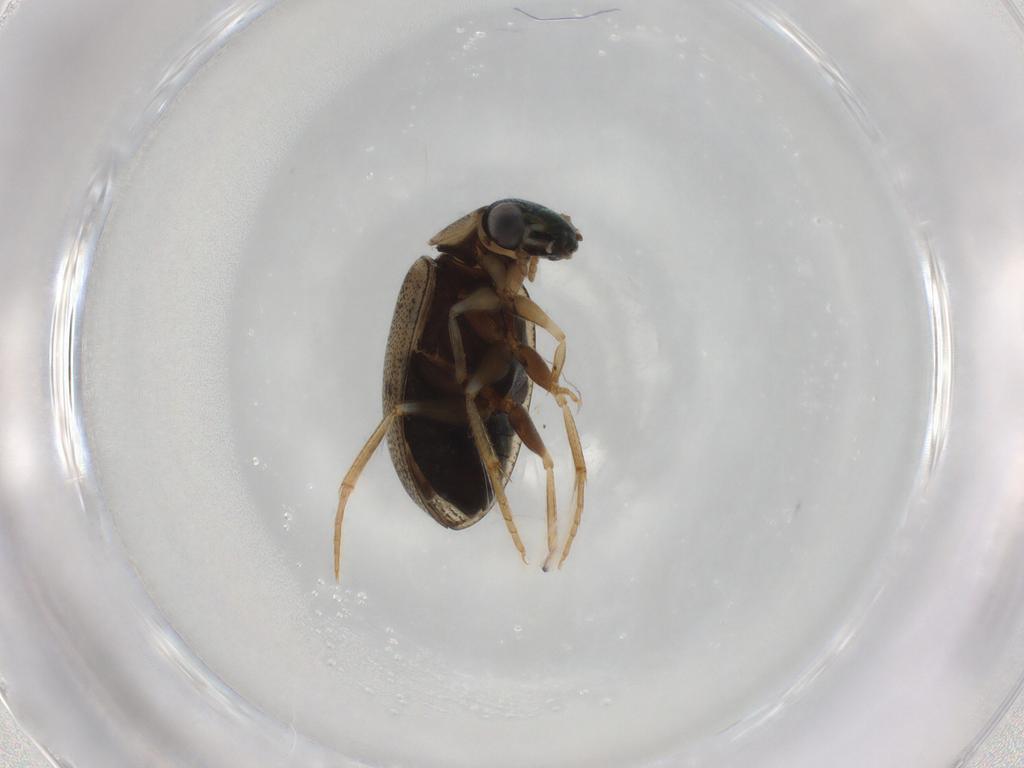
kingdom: Animalia
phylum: Arthropoda
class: Insecta
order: Coleoptera
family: Hydrophilidae
